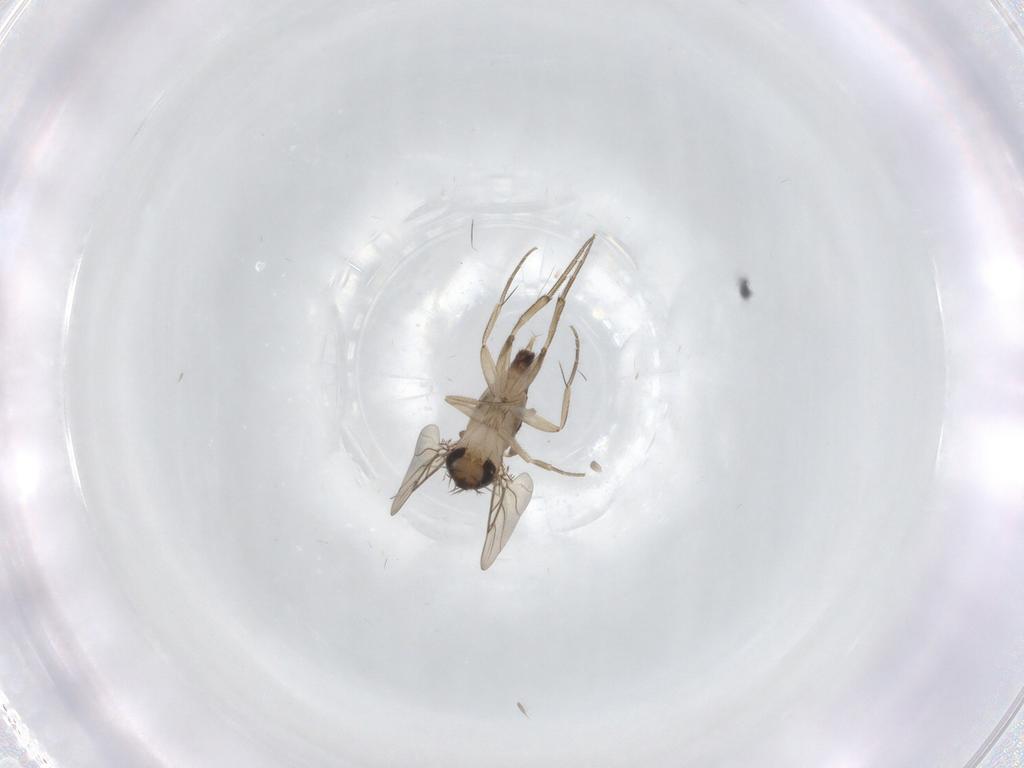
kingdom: Animalia
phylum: Arthropoda
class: Insecta
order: Diptera
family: Phoridae
